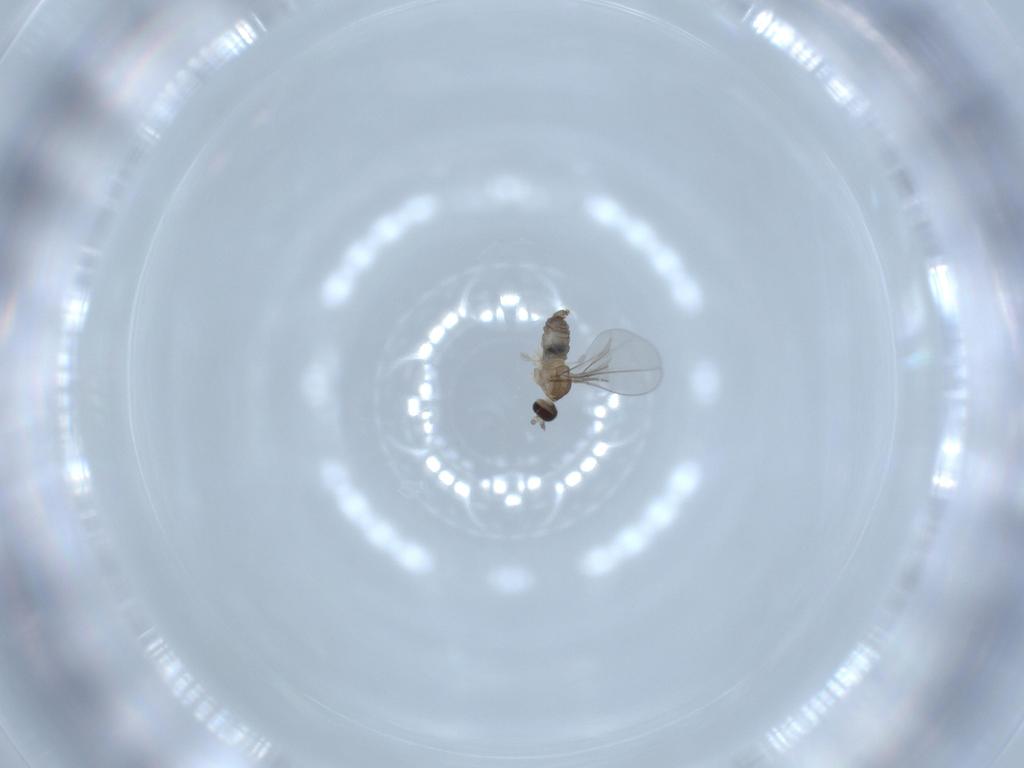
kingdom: Animalia
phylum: Arthropoda
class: Insecta
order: Diptera
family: Cecidomyiidae
